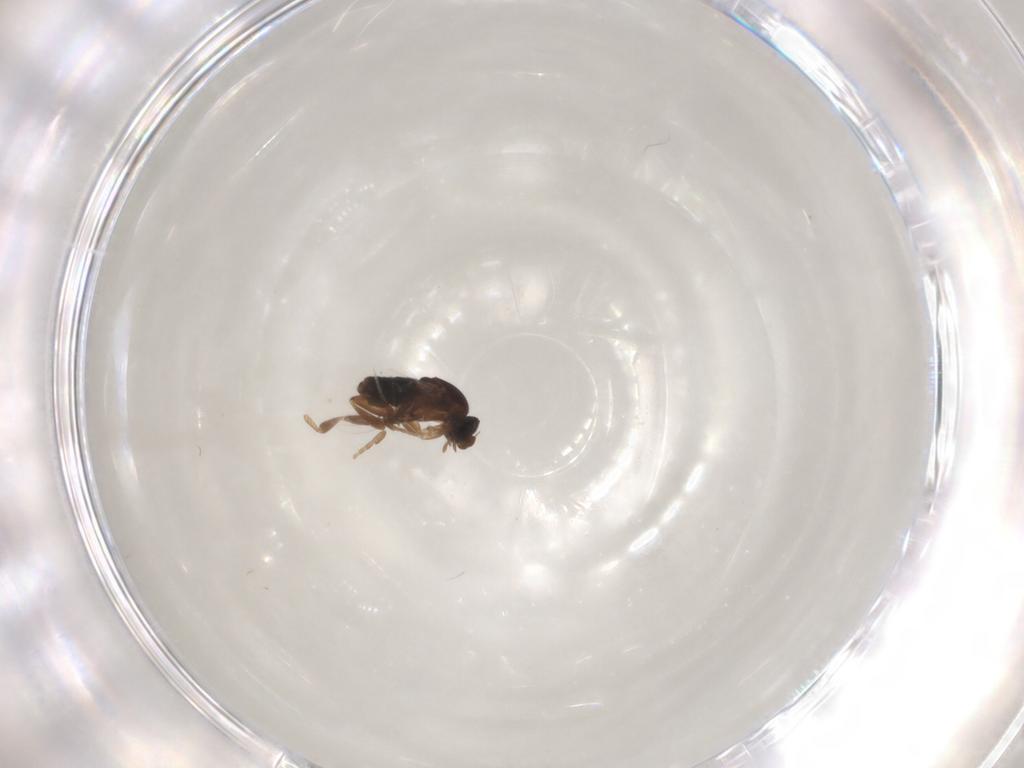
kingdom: Animalia
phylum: Arthropoda
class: Insecta
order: Diptera
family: Phoridae
